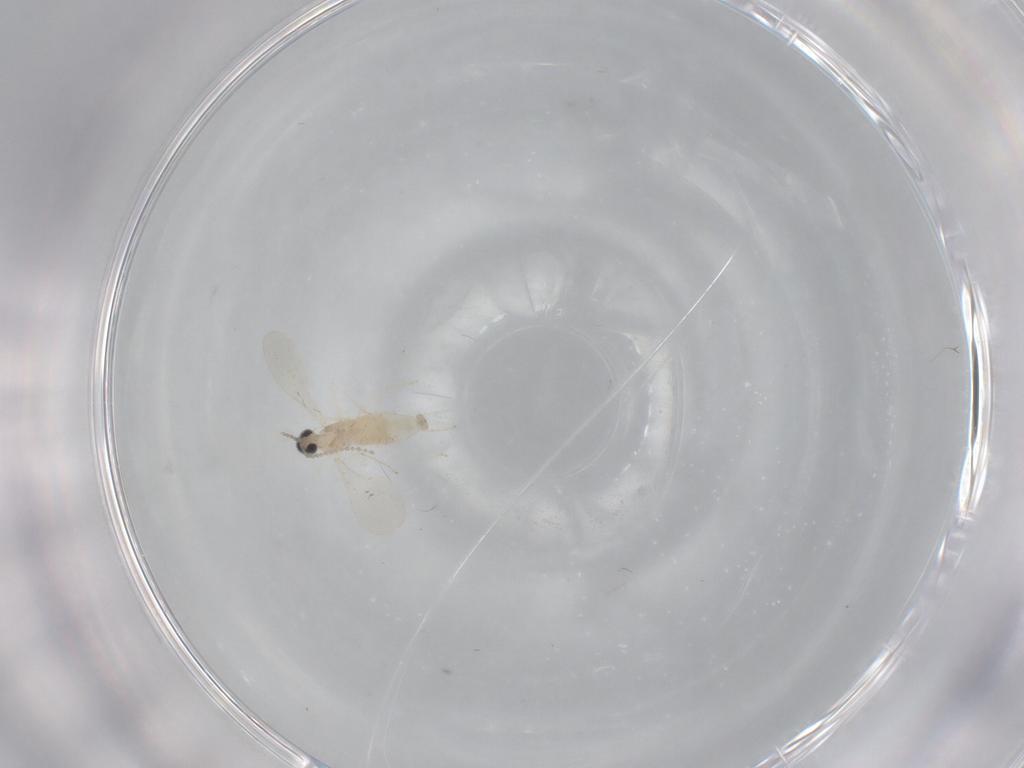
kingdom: Animalia
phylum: Arthropoda
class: Insecta
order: Diptera
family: Cecidomyiidae
